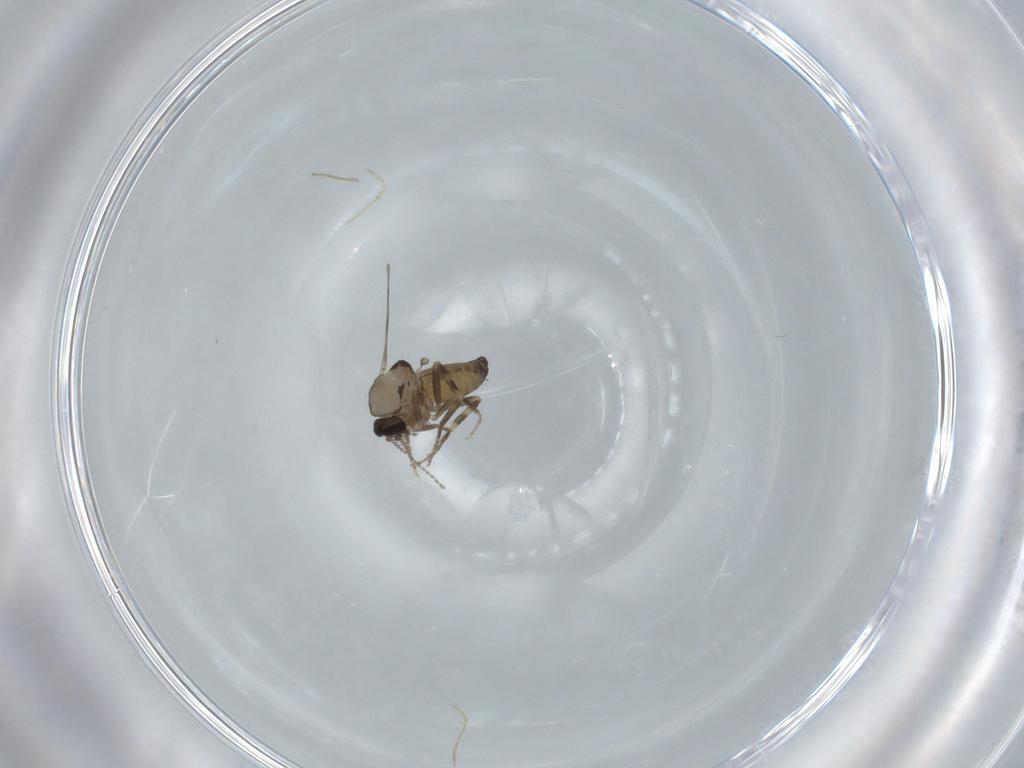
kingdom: Animalia
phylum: Arthropoda
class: Insecta
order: Diptera
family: Ceratopogonidae
